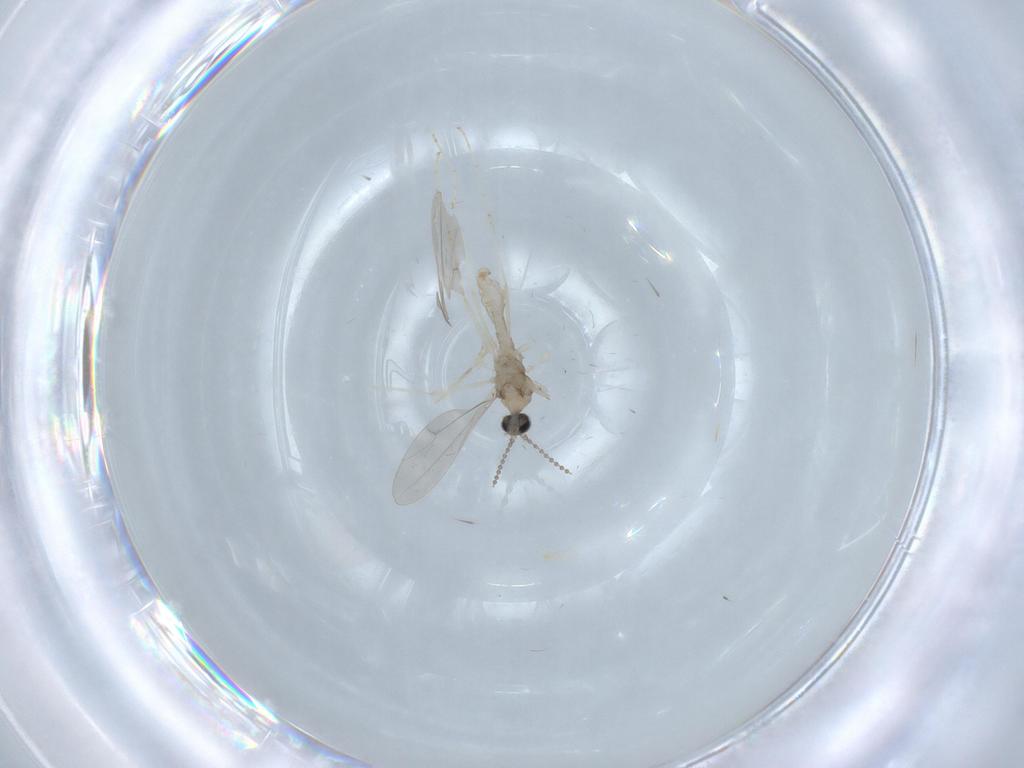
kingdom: Animalia
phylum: Arthropoda
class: Insecta
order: Diptera
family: Cecidomyiidae
